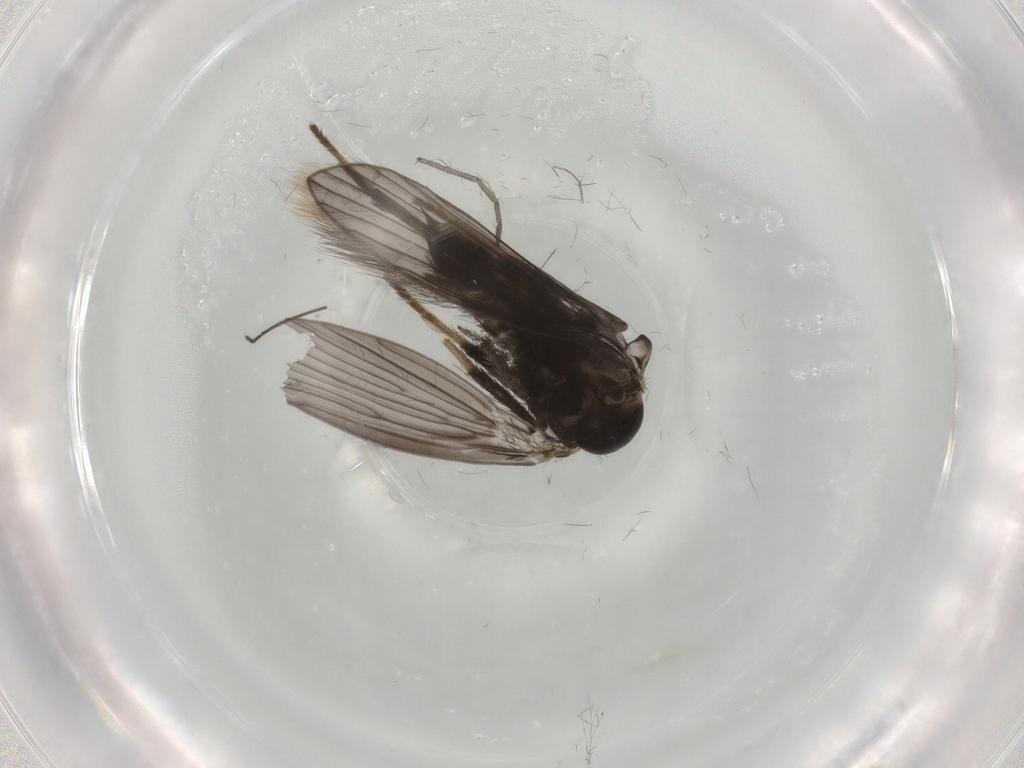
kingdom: Animalia
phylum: Arthropoda
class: Insecta
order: Diptera
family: Psychodidae
